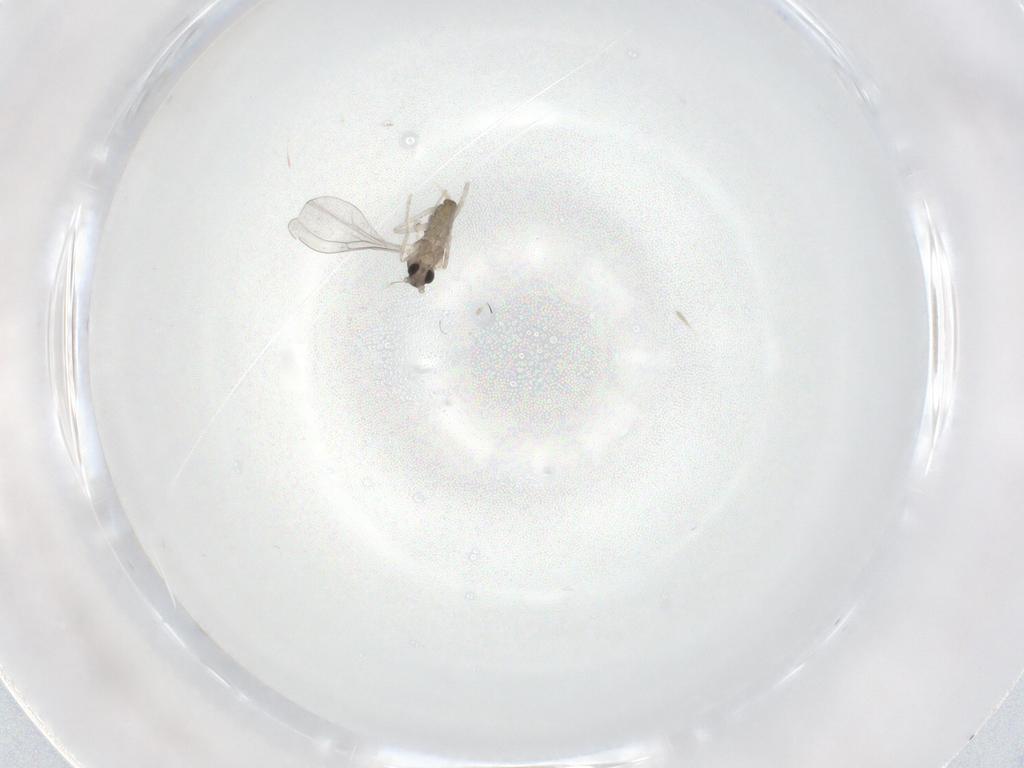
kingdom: Animalia
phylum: Arthropoda
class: Insecta
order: Diptera
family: Cecidomyiidae
